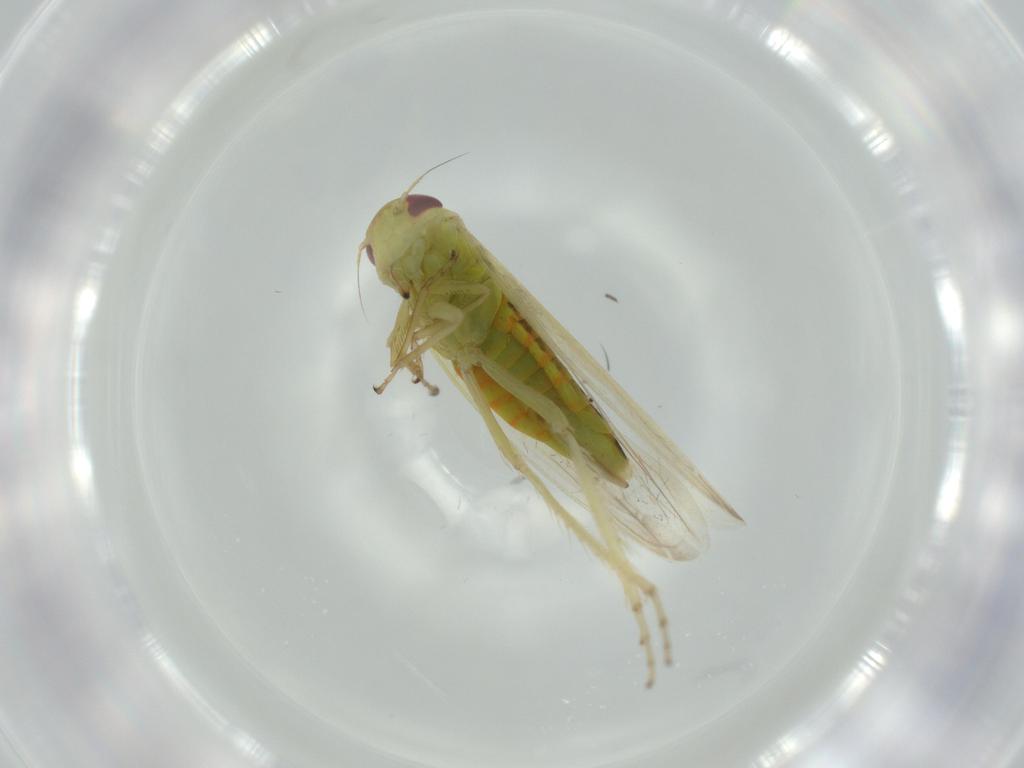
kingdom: Animalia
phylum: Arthropoda
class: Insecta
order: Hemiptera
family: Cicadellidae
